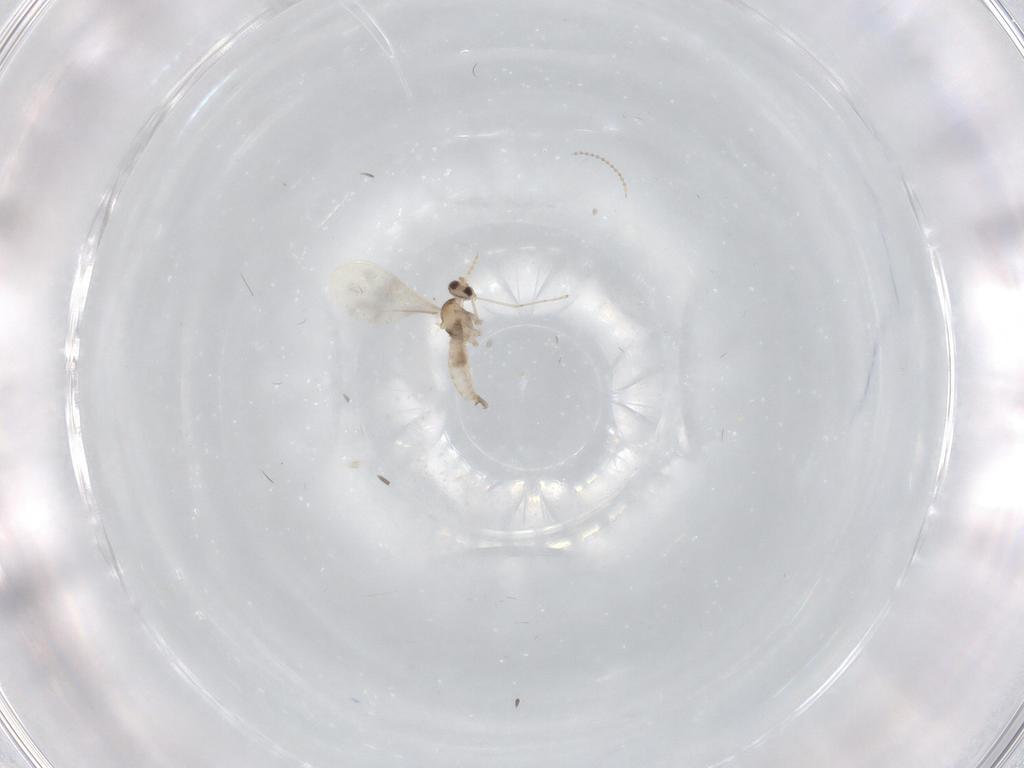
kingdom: Animalia
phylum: Arthropoda
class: Insecta
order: Diptera
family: Cecidomyiidae
